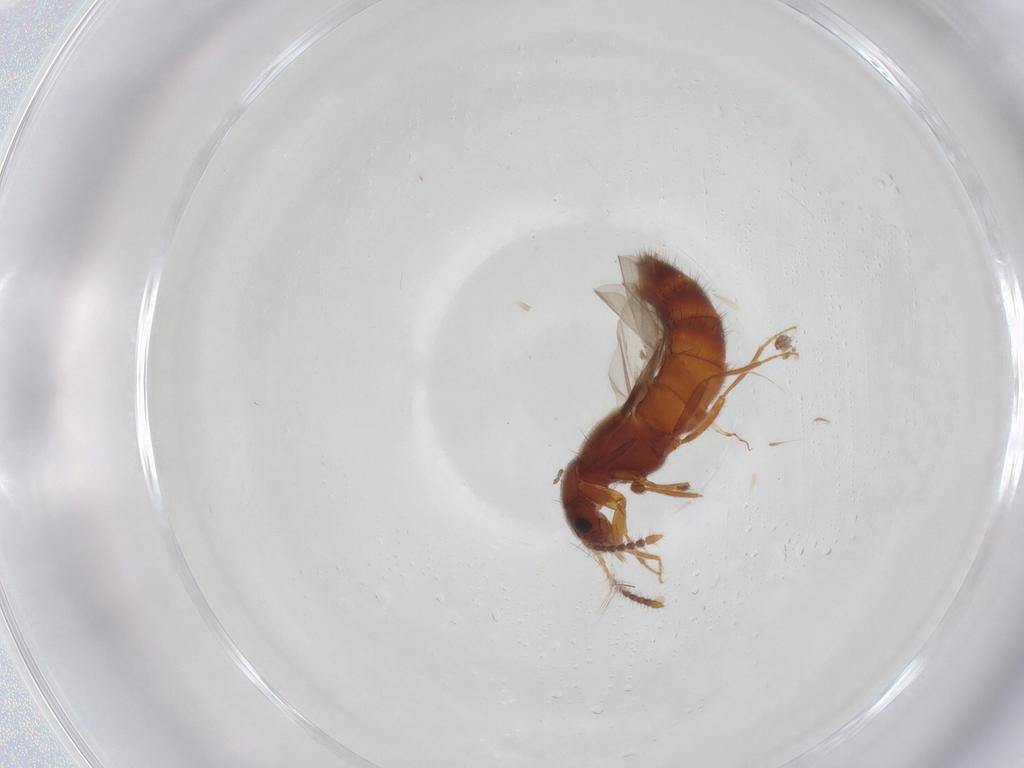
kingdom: Animalia
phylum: Arthropoda
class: Insecta
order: Coleoptera
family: Staphylinidae
